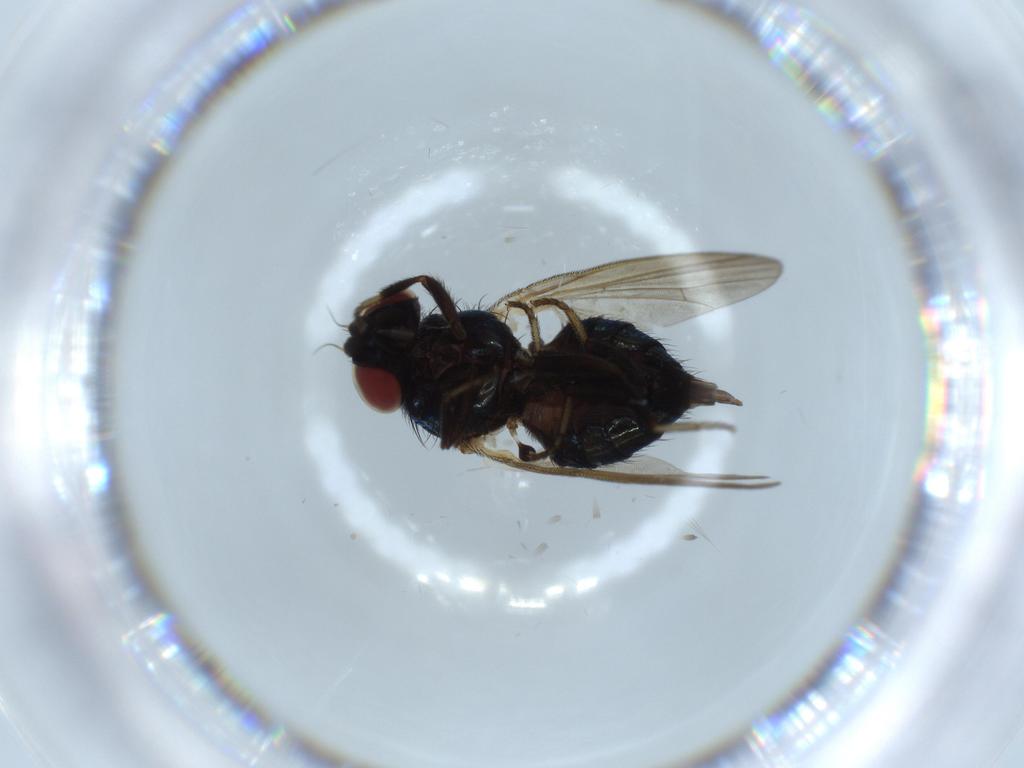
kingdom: Animalia
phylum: Arthropoda
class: Insecta
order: Diptera
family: Lonchaeidae
